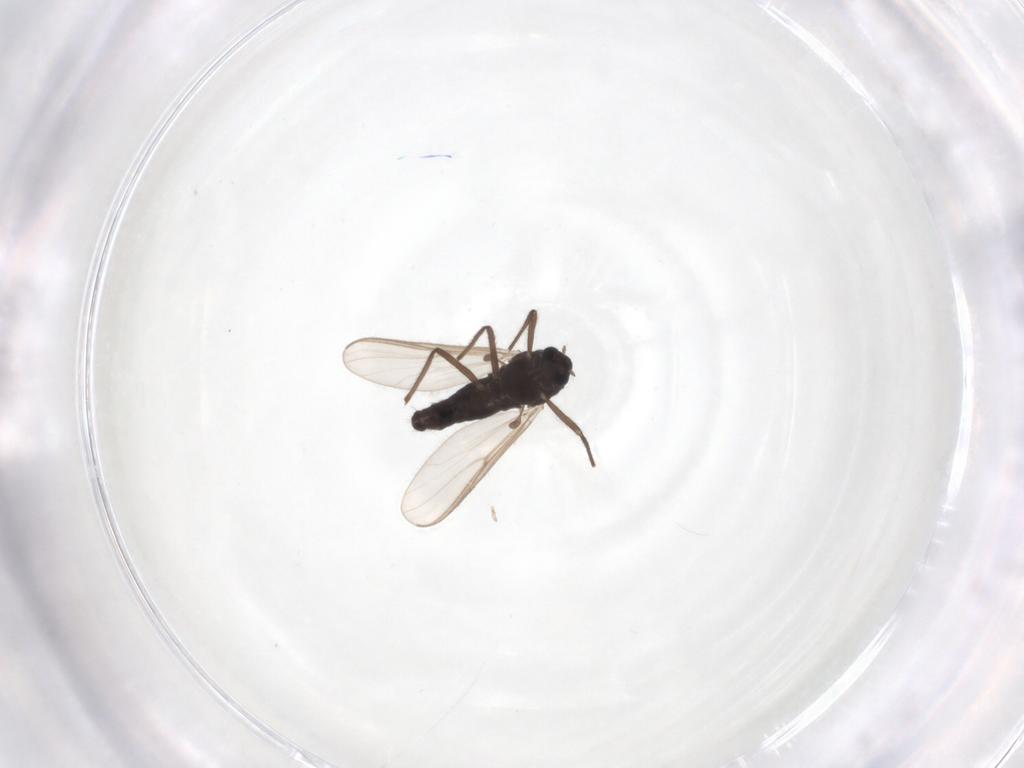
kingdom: Animalia
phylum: Arthropoda
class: Insecta
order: Diptera
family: Chironomidae
